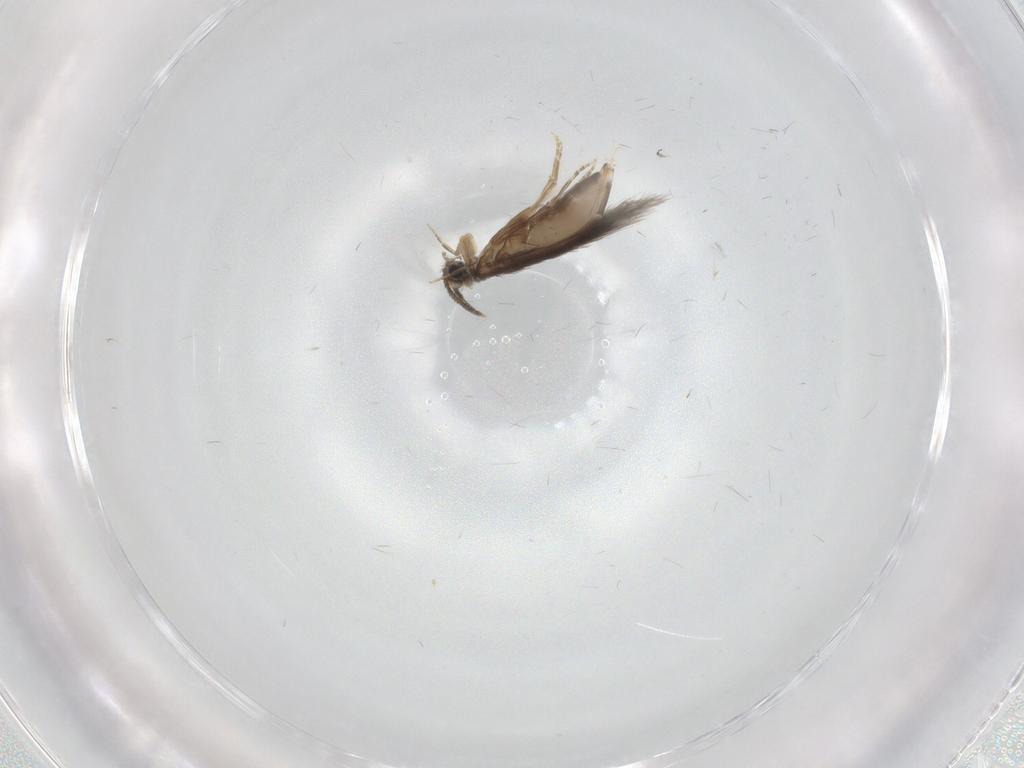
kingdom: Animalia
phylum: Arthropoda
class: Insecta
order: Trichoptera
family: Hydroptilidae
